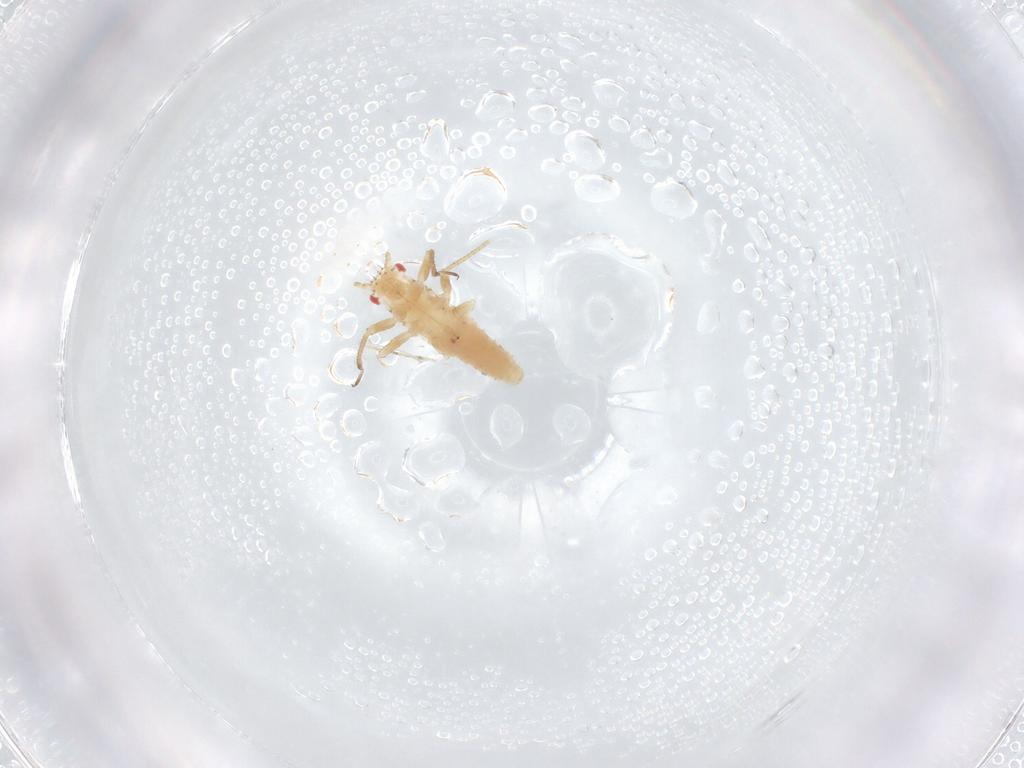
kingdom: Animalia
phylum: Arthropoda
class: Insecta
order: Hemiptera
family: Aphididae
